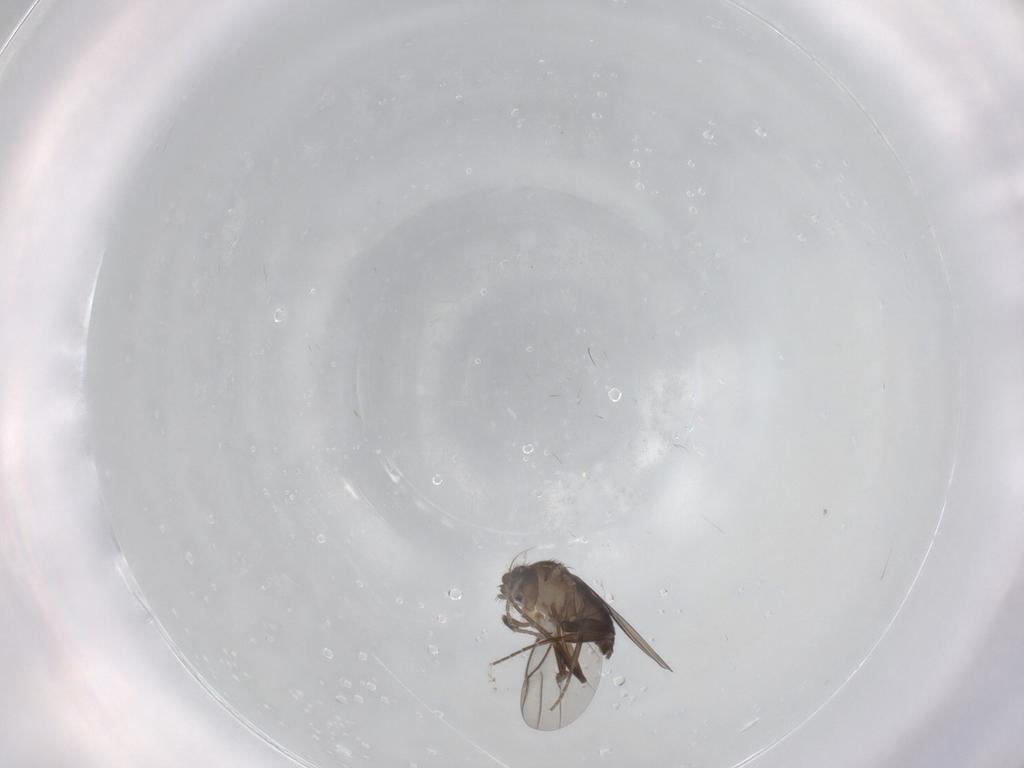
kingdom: Animalia
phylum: Arthropoda
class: Insecta
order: Diptera
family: Phoridae
